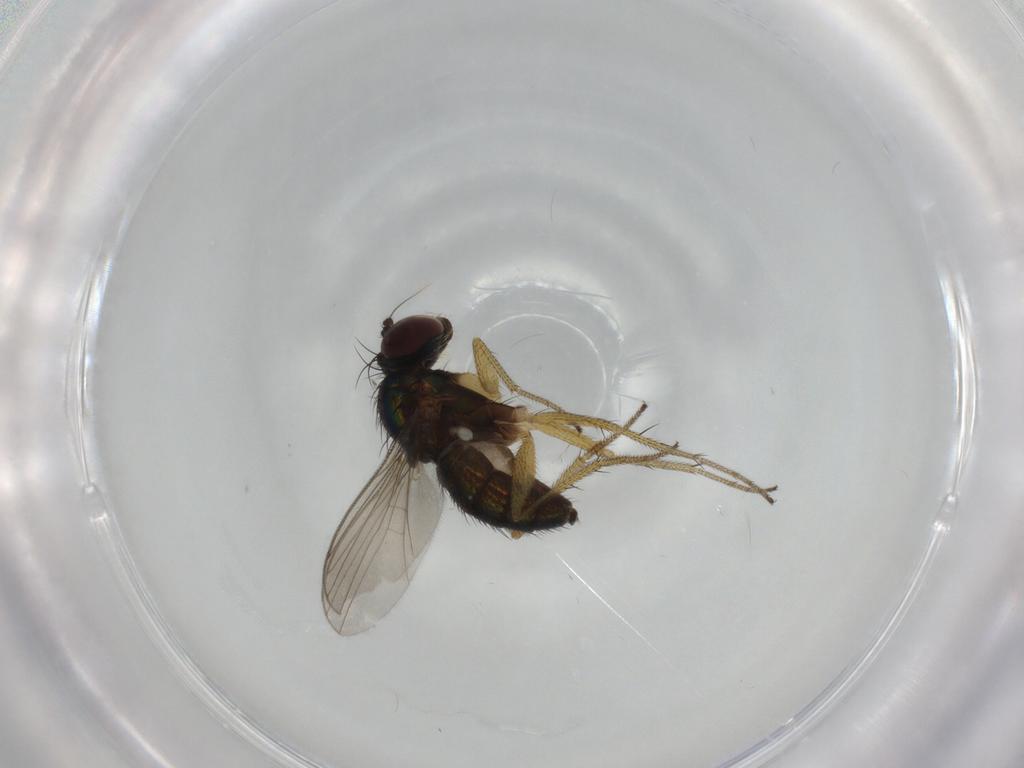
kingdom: Animalia
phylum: Arthropoda
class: Insecta
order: Diptera
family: Dolichopodidae
